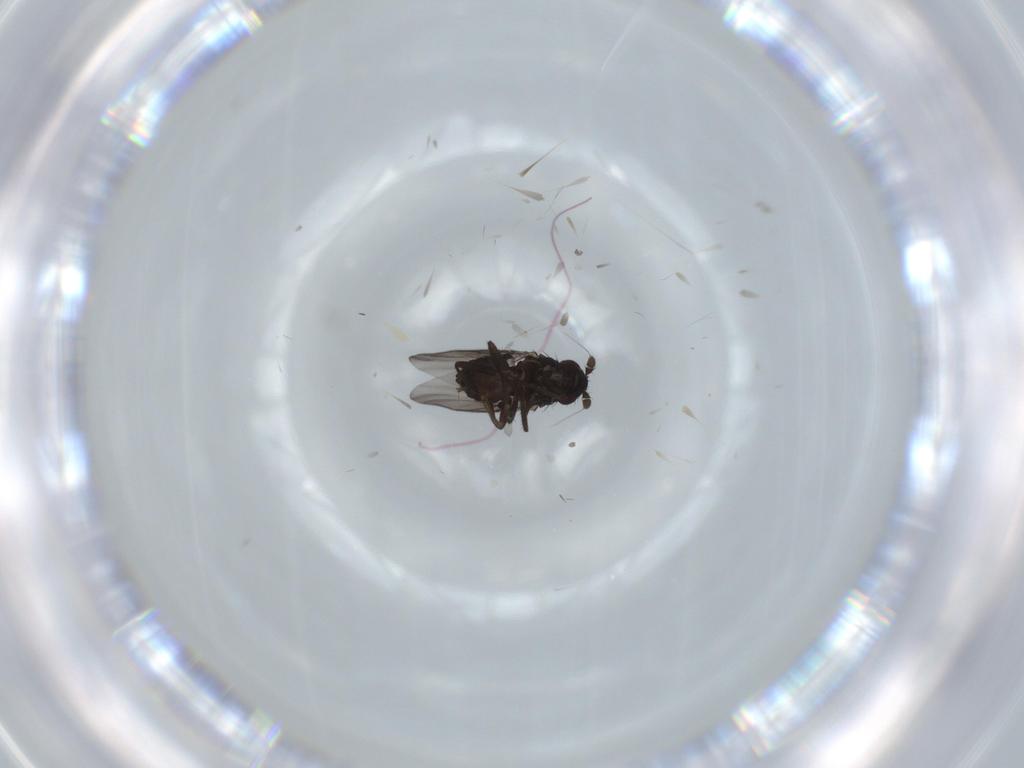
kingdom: Animalia
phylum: Arthropoda
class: Insecta
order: Diptera
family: Sphaeroceridae
